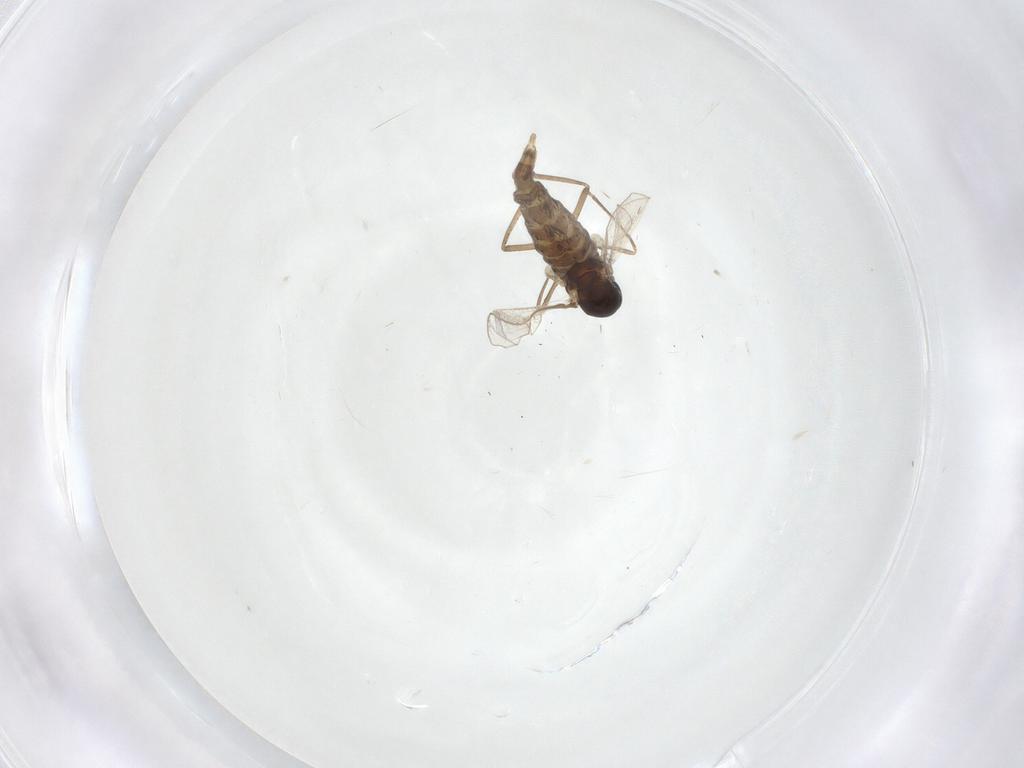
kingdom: Animalia
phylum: Arthropoda
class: Insecta
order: Diptera
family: Cecidomyiidae
